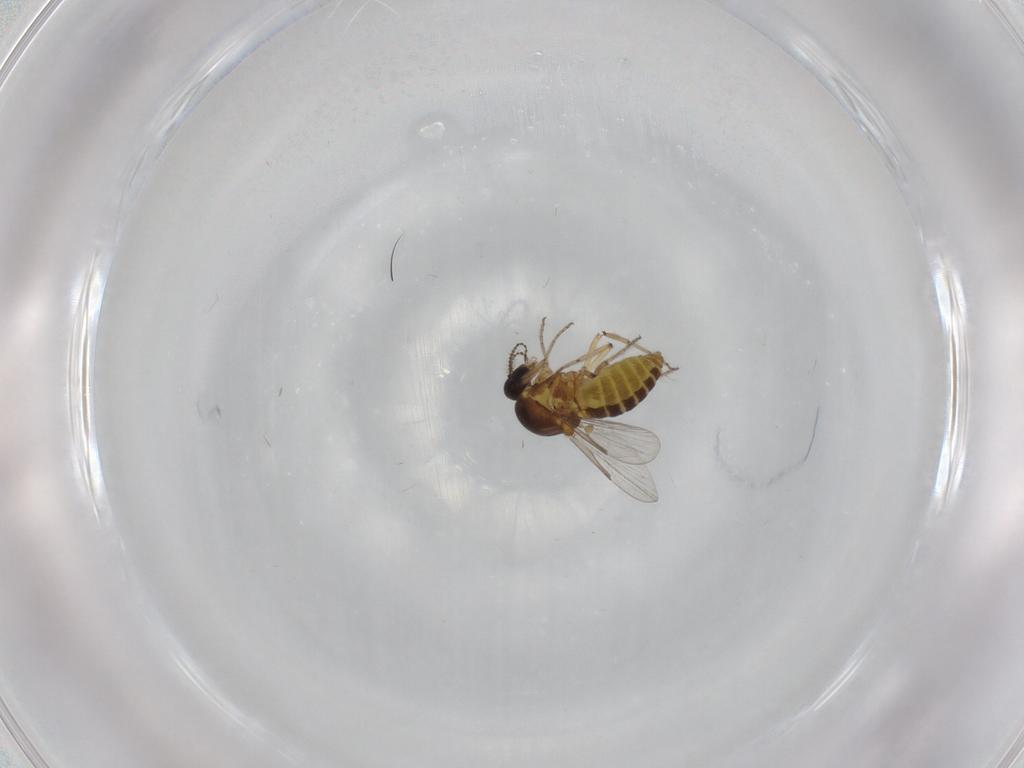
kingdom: Animalia
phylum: Arthropoda
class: Insecta
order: Diptera
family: Ceratopogonidae
